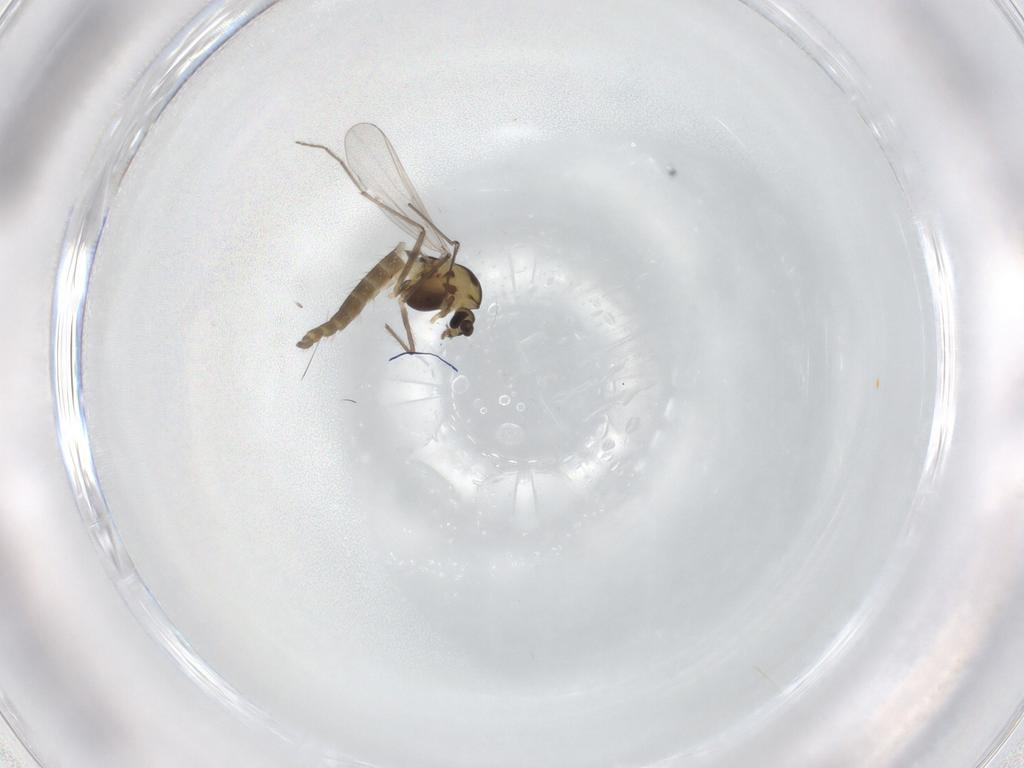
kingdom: Animalia
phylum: Arthropoda
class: Insecta
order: Diptera
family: Chironomidae
